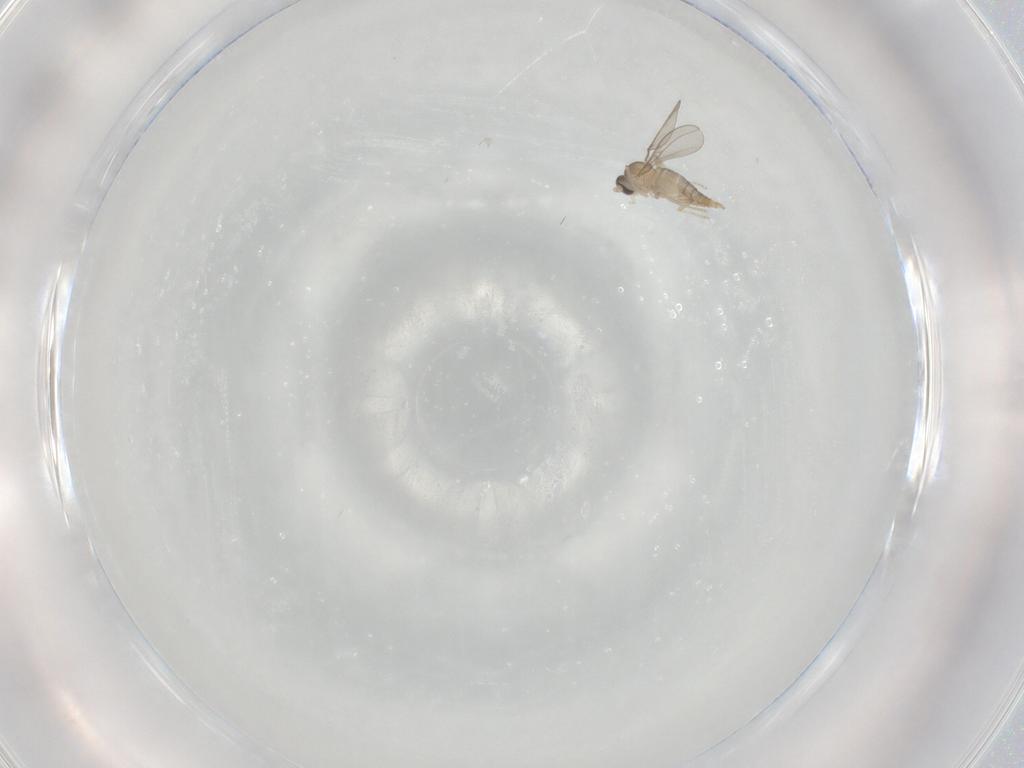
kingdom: Animalia
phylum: Arthropoda
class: Insecta
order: Diptera
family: Cecidomyiidae
